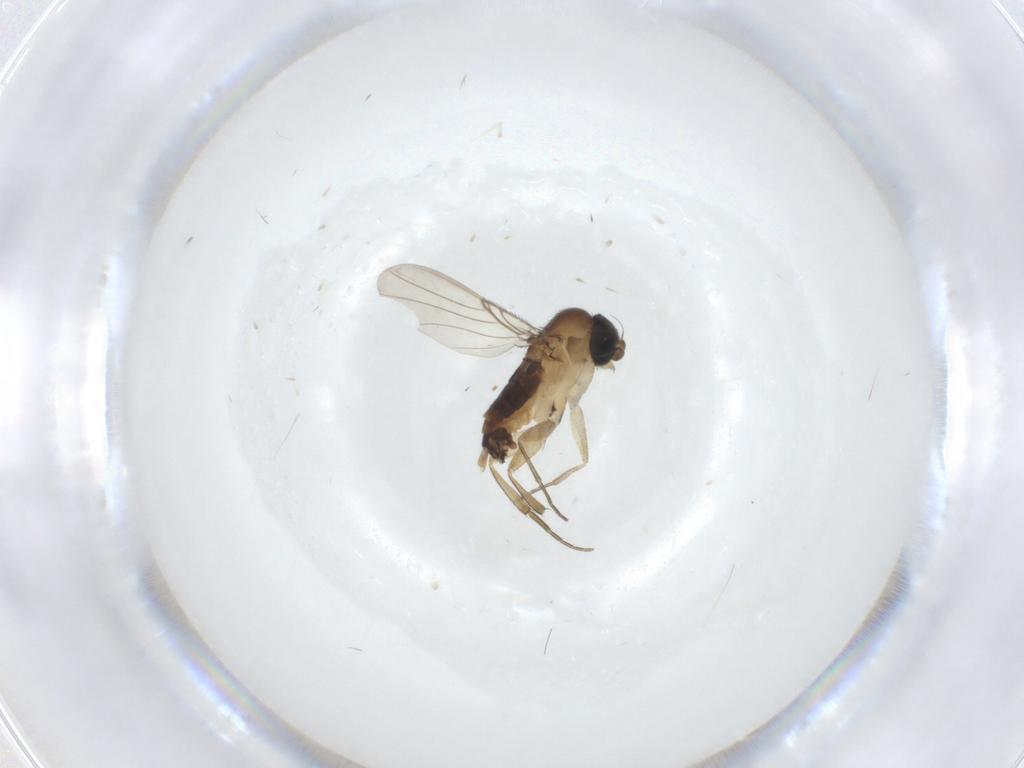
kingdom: Animalia
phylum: Arthropoda
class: Insecta
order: Diptera
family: Phoridae
